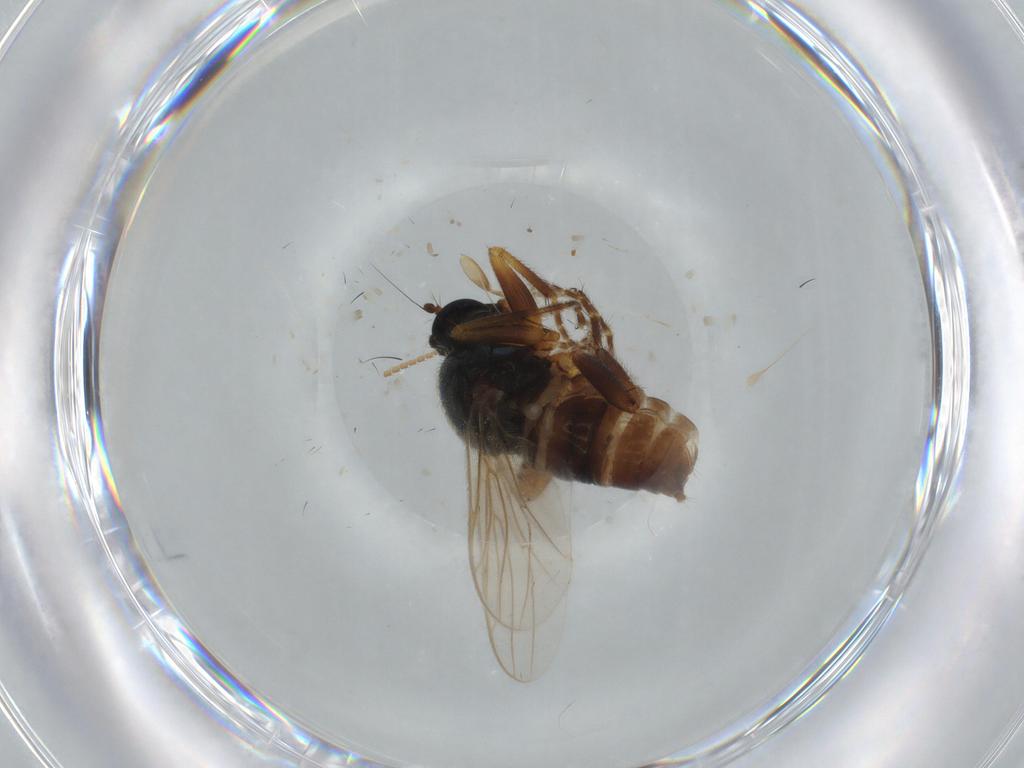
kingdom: Animalia
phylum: Arthropoda
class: Insecta
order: Diptera
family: Hybotidae
